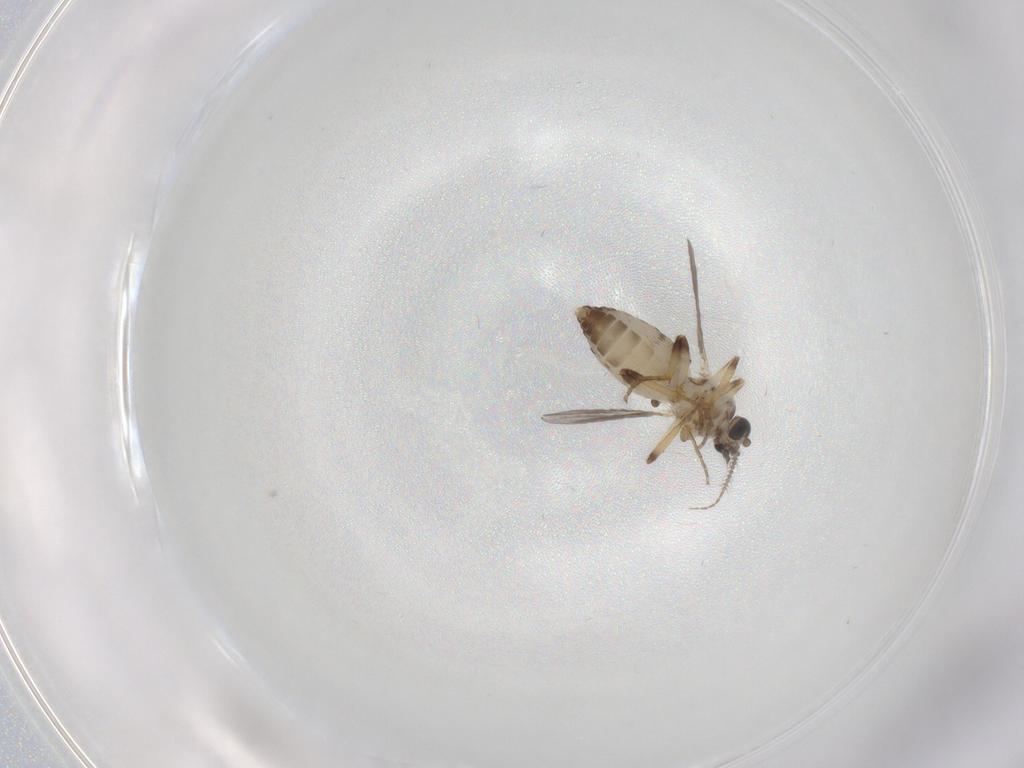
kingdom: Animalia
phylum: Arthropoda
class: Insecta
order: Diptera
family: Ceratopogonidae
